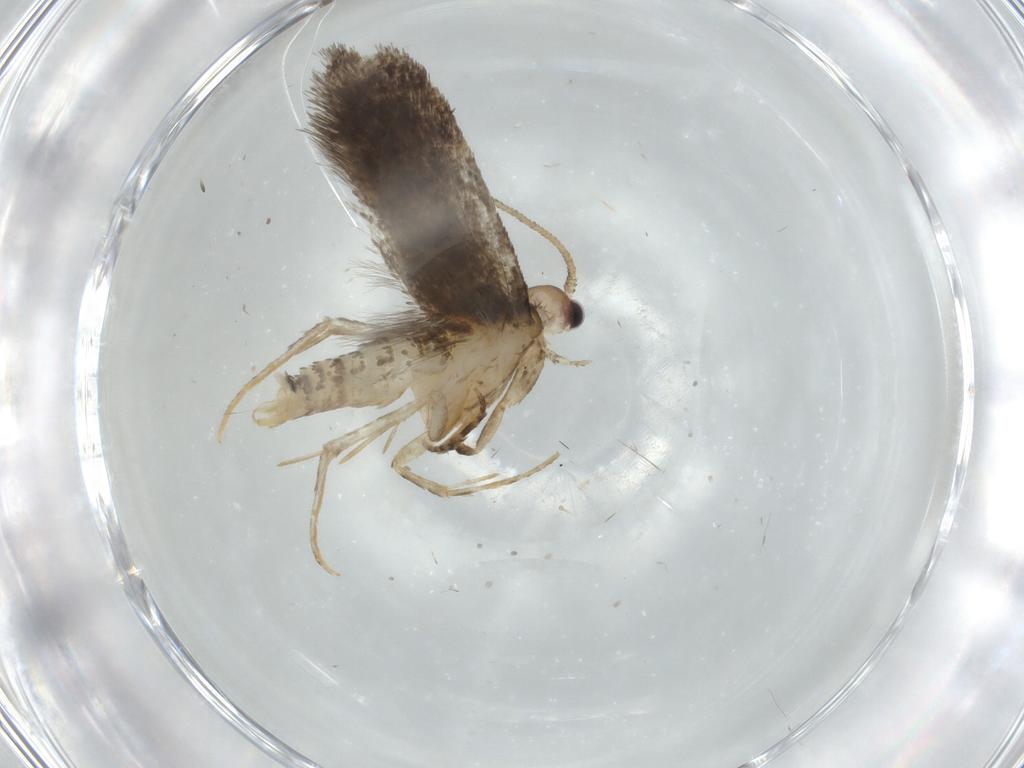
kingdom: Animalia
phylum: Arthropoda
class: Insecta
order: Lepidoptera
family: Tineidae
